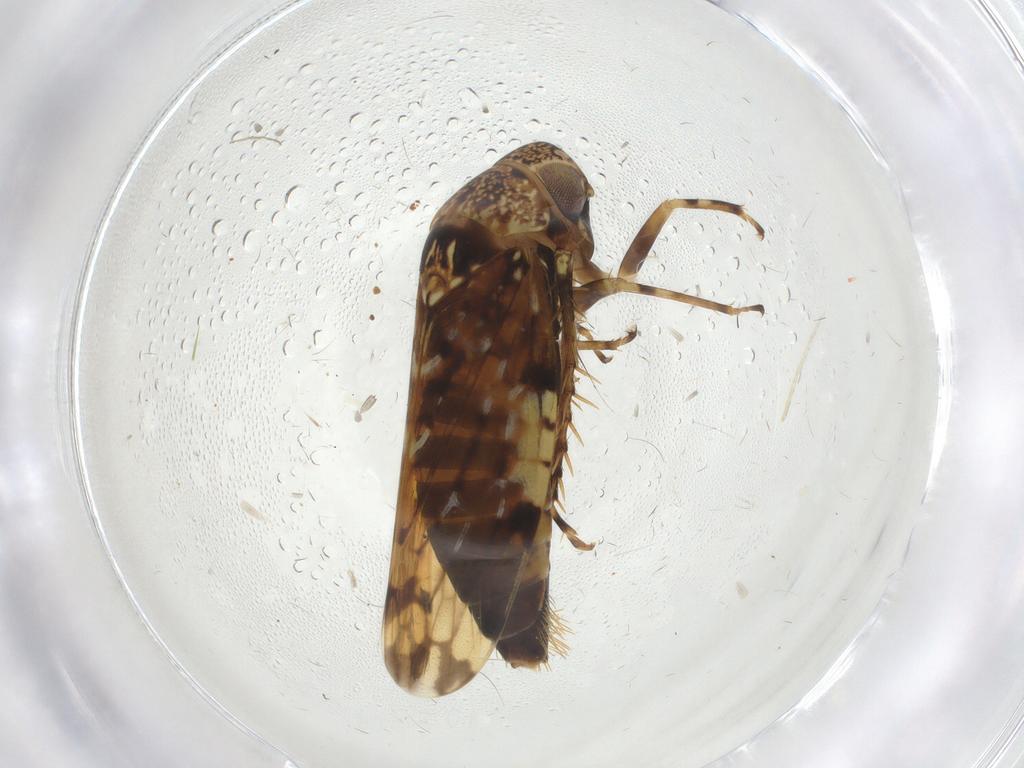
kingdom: Animalia
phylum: Arthropoda
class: Insecta
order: Hemiptera
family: Cicadellidae
